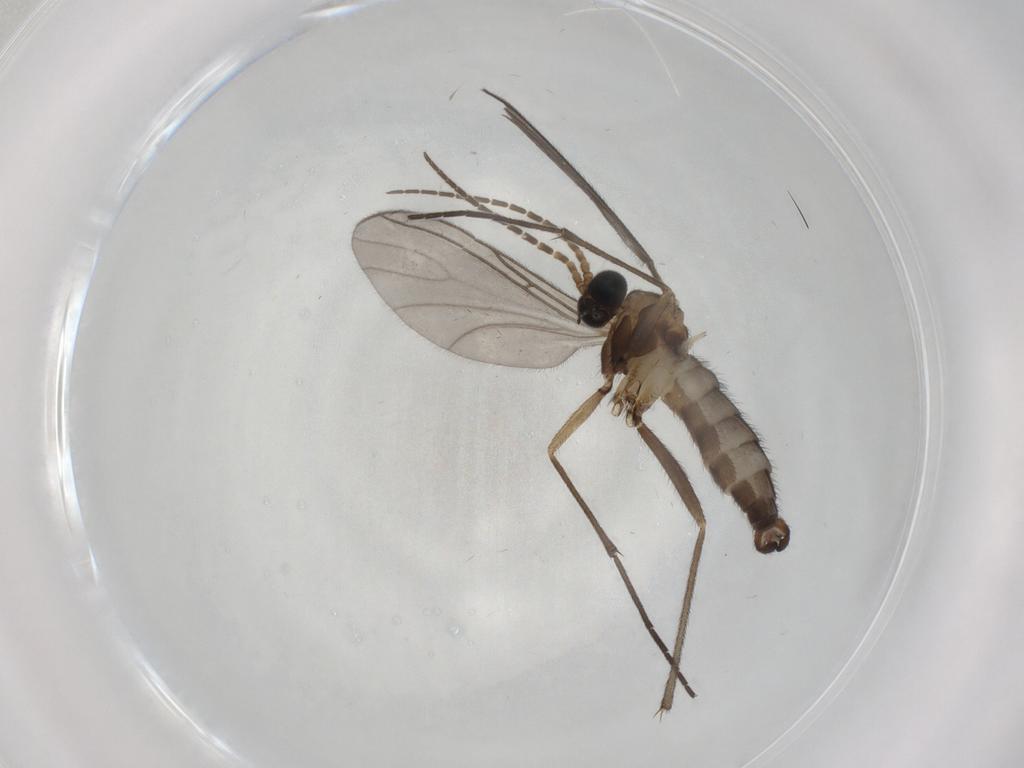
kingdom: Animalia
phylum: Arthropoda
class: Insecta
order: Diptera
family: Sciaridae
